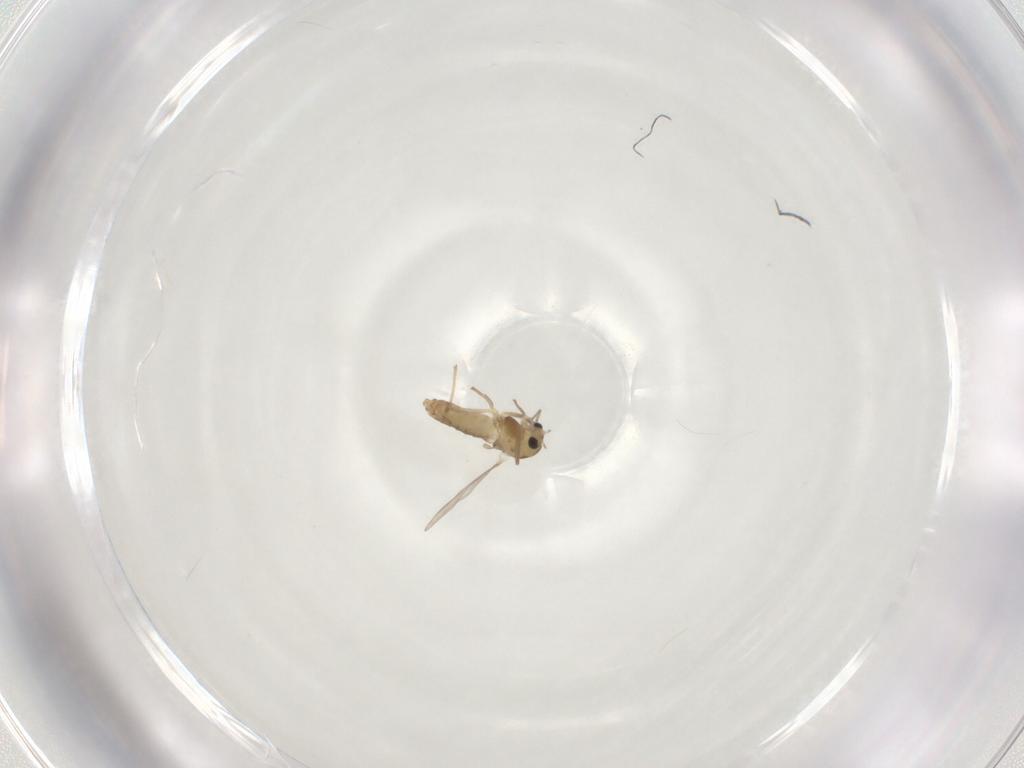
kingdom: Animalia
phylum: Arthropoda
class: Insecta
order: Diptera
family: Chironomidae
